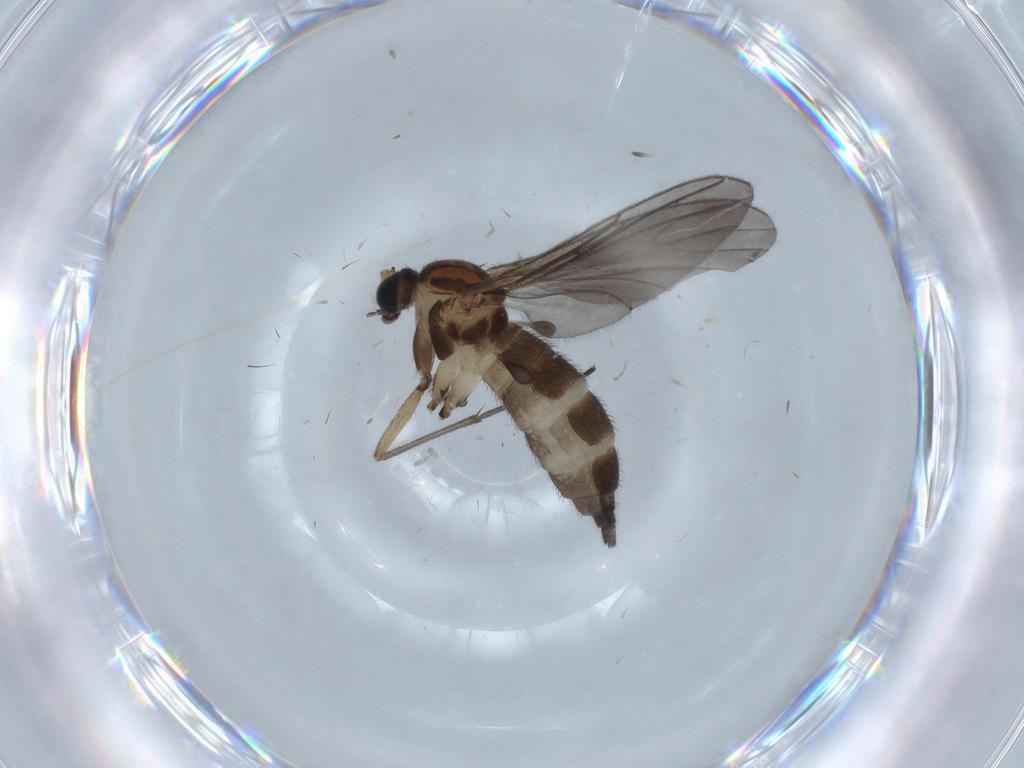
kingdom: Animalia
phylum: Arthropoda
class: Insecta
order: Diptera
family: Sciaridae
